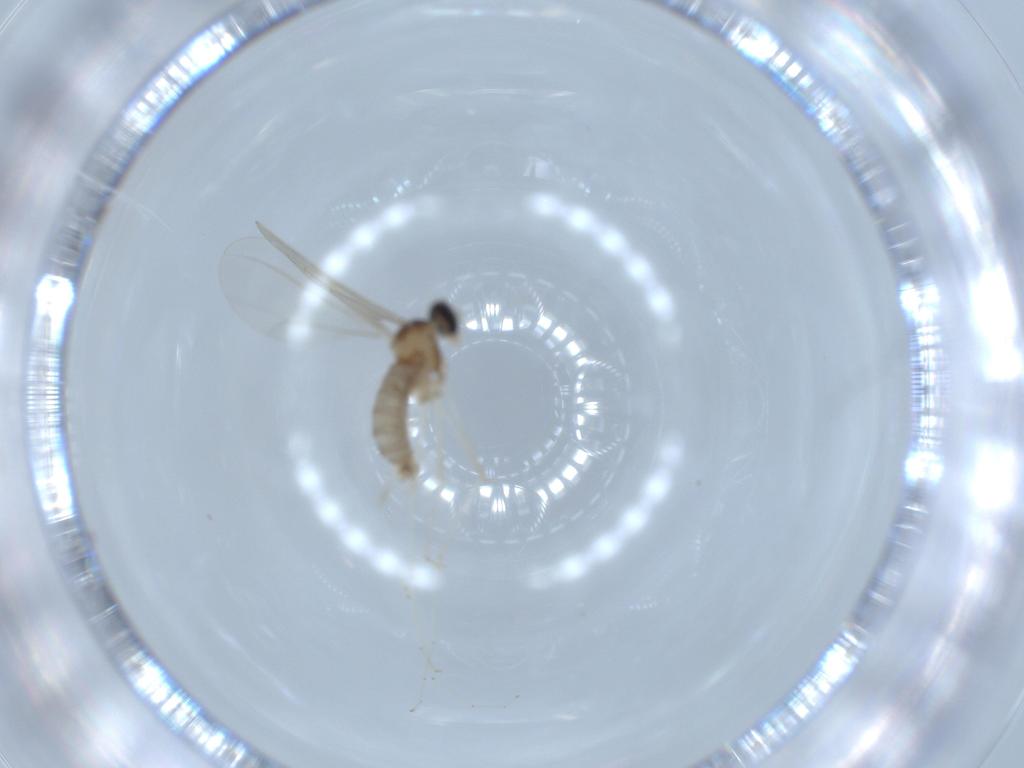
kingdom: Animalia
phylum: Arthropoda
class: Insecta
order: Diptera
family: Cecidomyiidae
